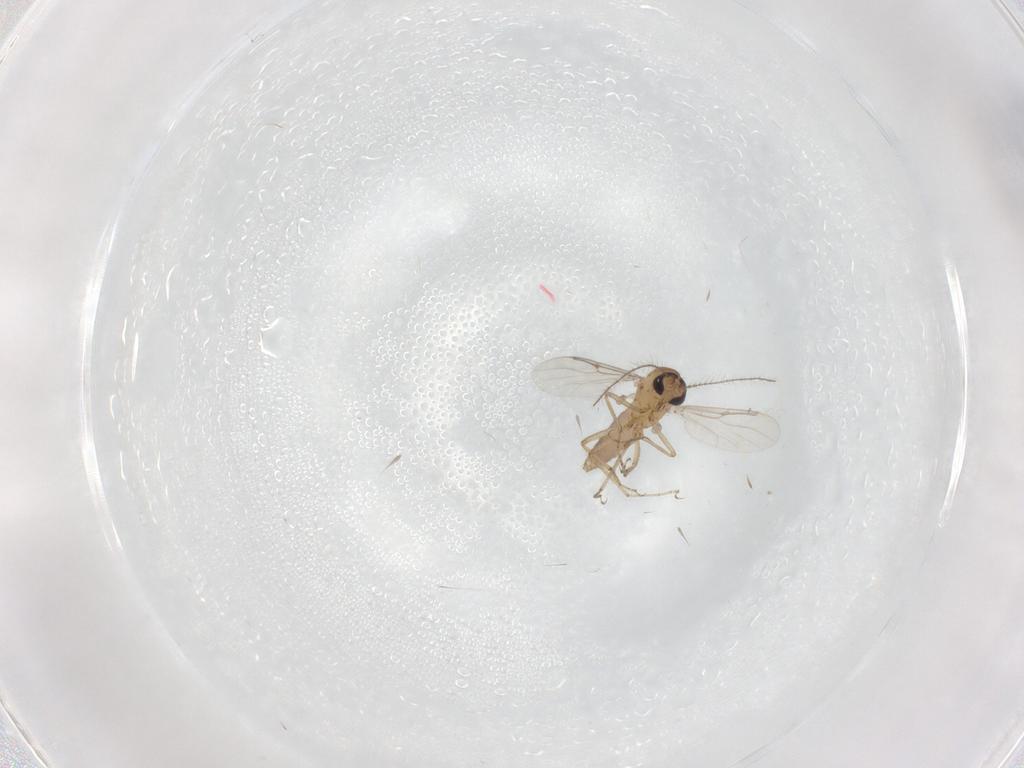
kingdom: Animalia
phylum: Arthropoda
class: Insecta
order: Diptera
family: Ceratopogonidae
